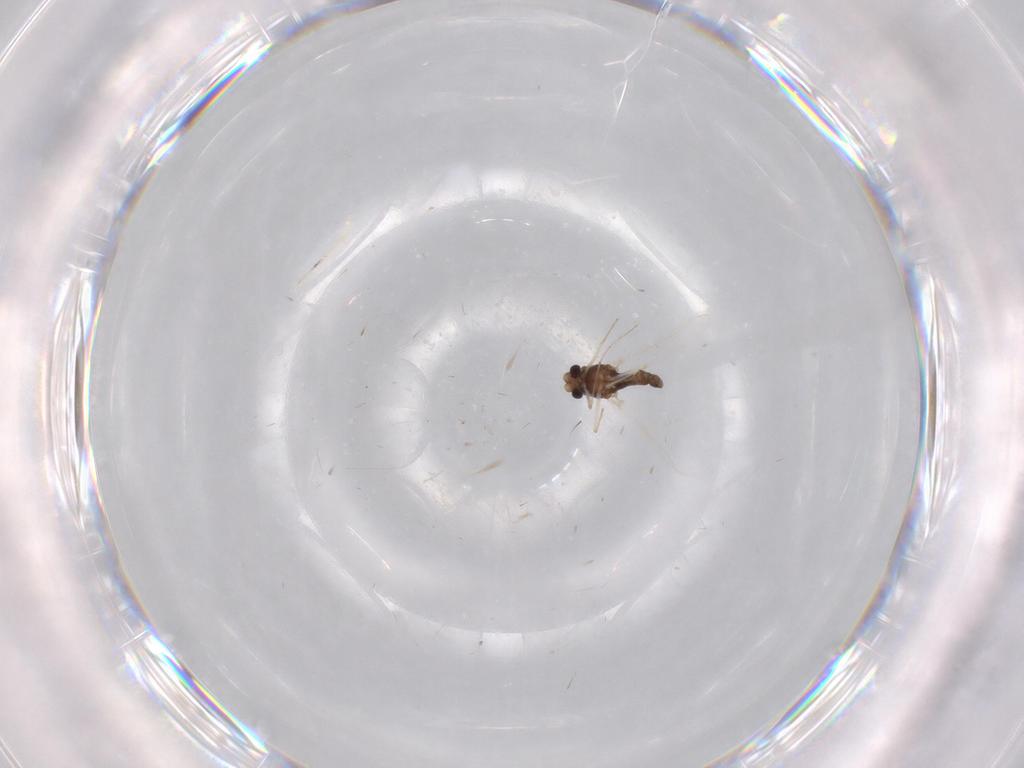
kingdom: Animalia
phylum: Arthropoda
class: Insecta
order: Diptera
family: Chironomidae
